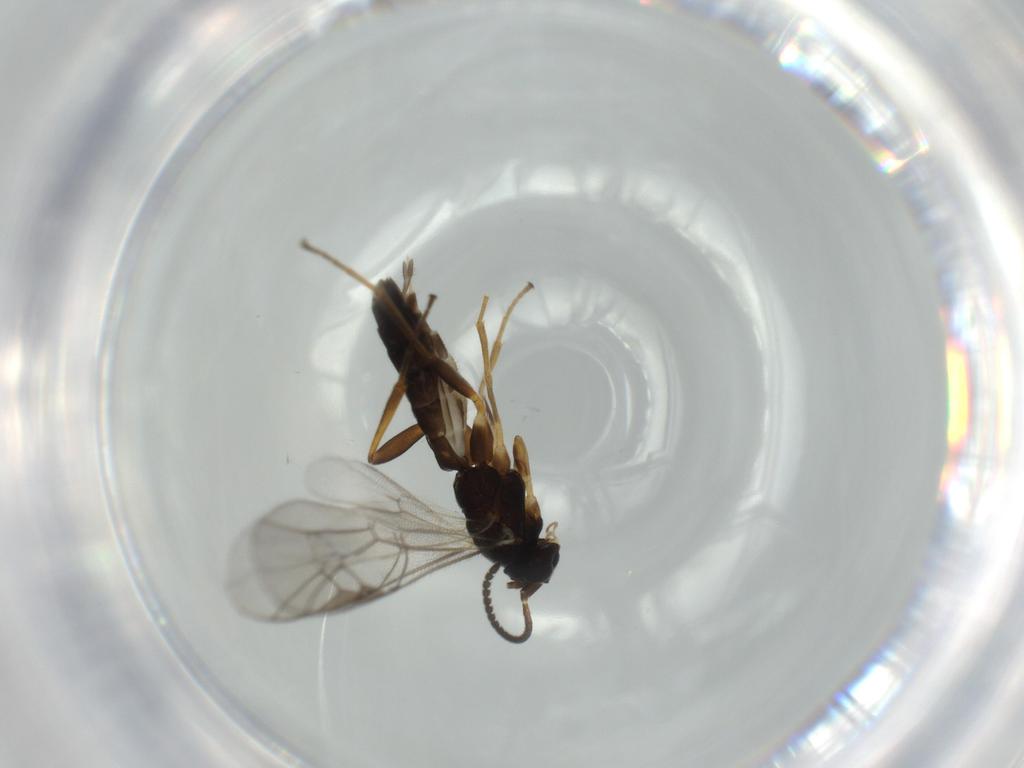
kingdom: Animalia
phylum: Arthropoda
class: Insecta
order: Hymenoptera
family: Ichneumonidae
